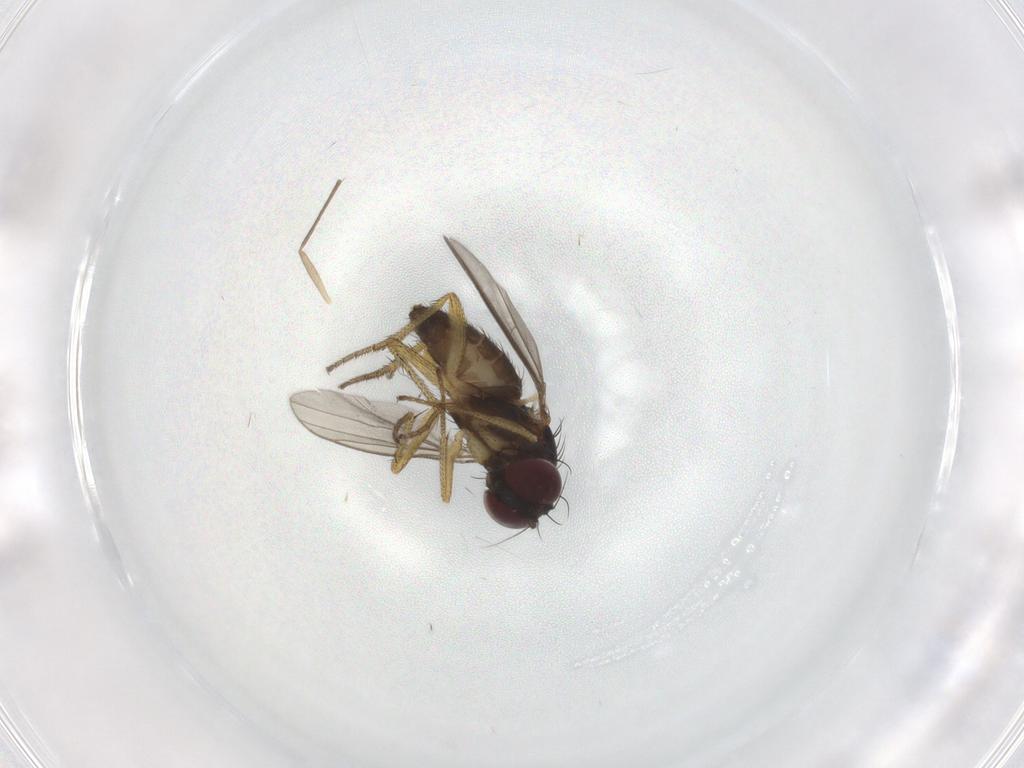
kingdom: Animalia
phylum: Arthropoda
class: Insecta
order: Diptera
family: Dolichopodidae
